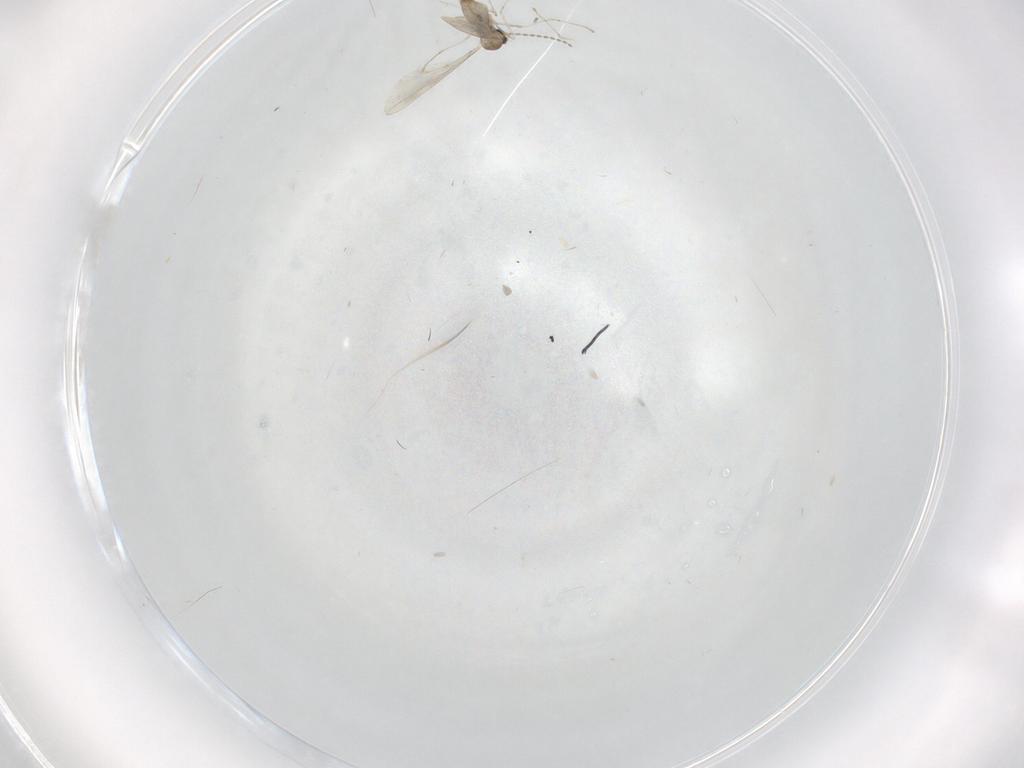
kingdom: Animalia
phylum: Arthropoda
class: Insecta
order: Diptera
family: Cecidomyiidae
